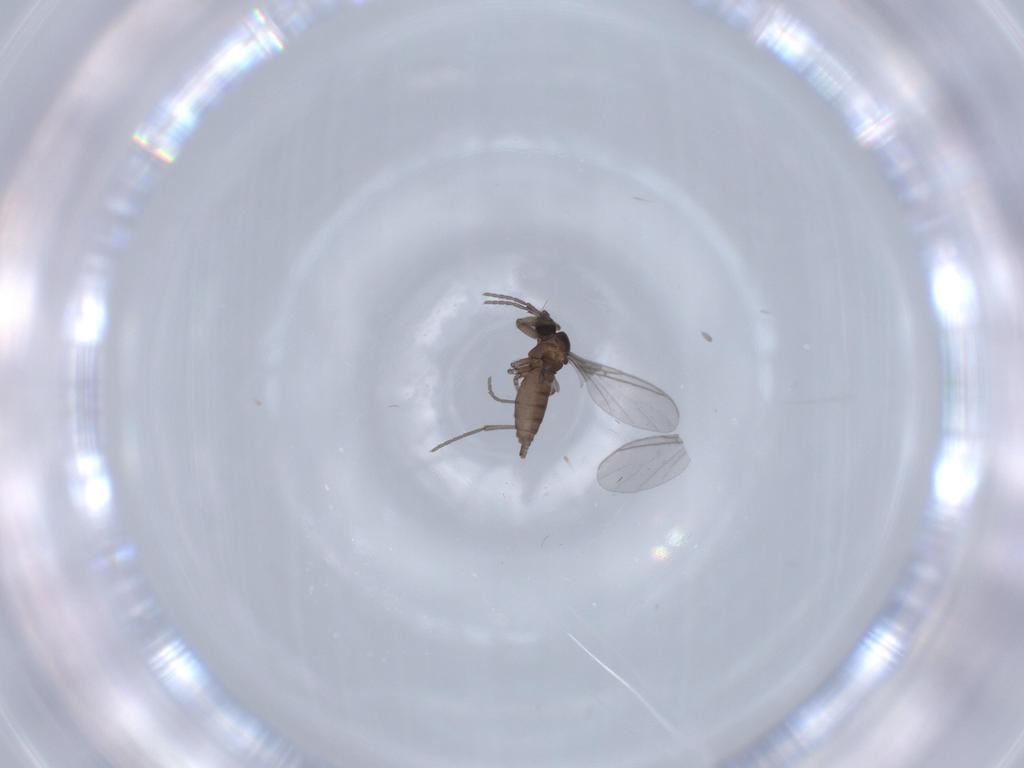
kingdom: Animalia
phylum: Arthropoda
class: Insecta
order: Diptera
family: Sciaridae
